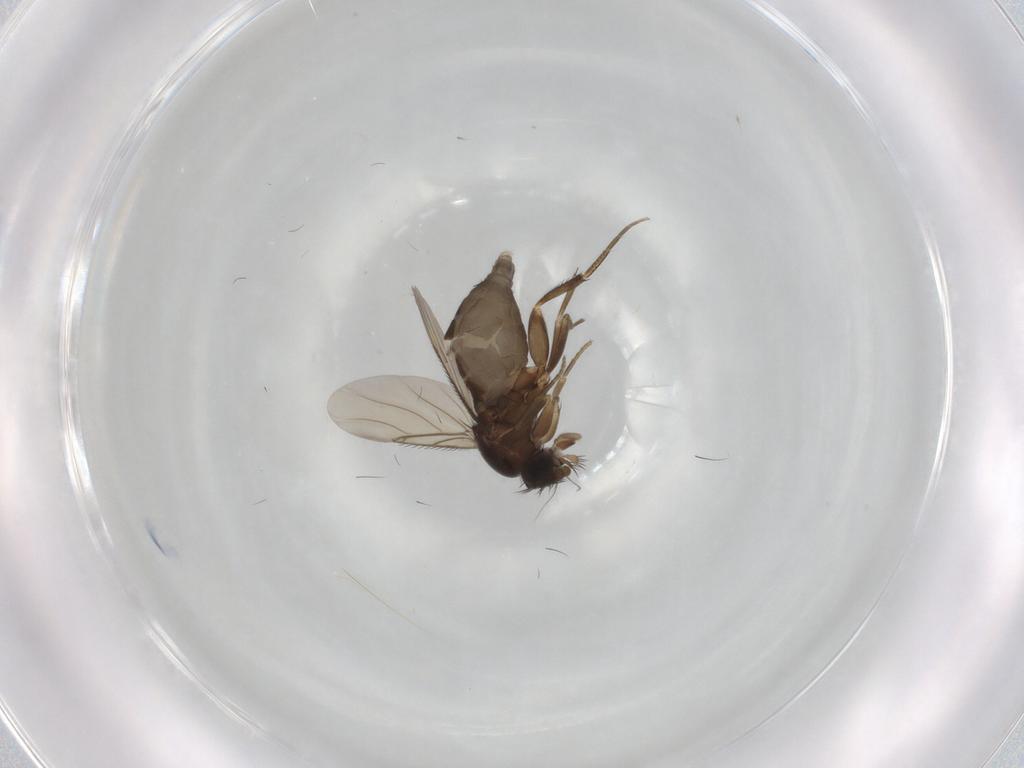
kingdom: Animalia
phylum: Arthropoda
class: Insecta
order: Diptera
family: Phoridae
